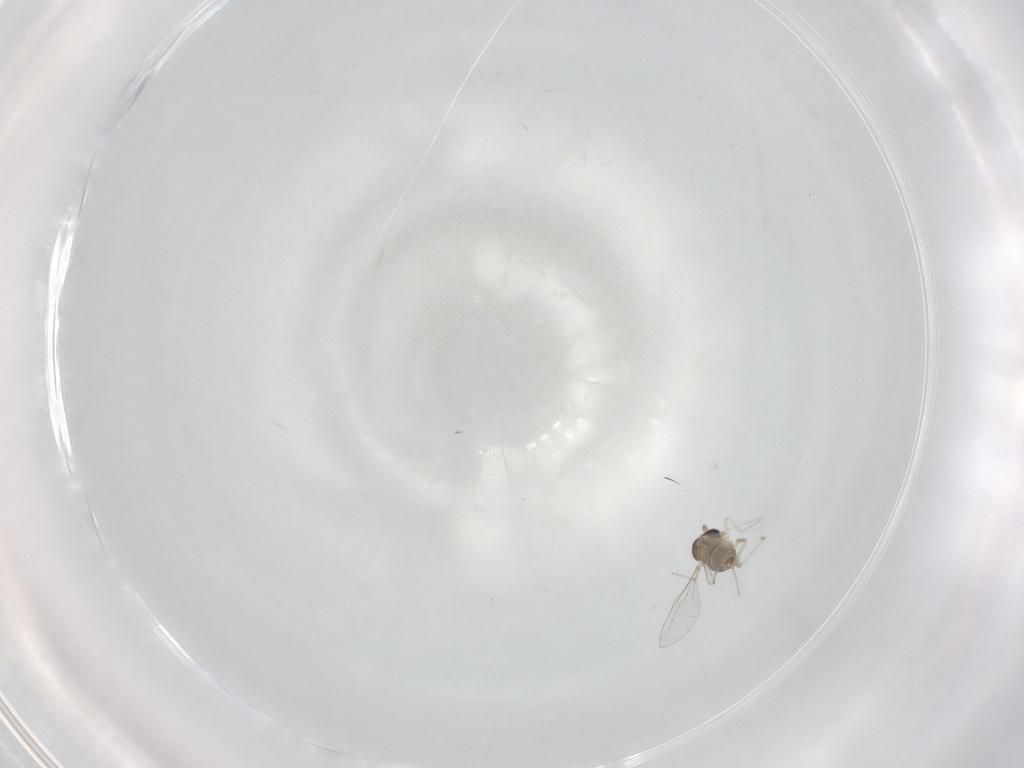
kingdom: Animalia
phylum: Arthropoda
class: Insecta
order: Diptera
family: Cecidomyiidae
